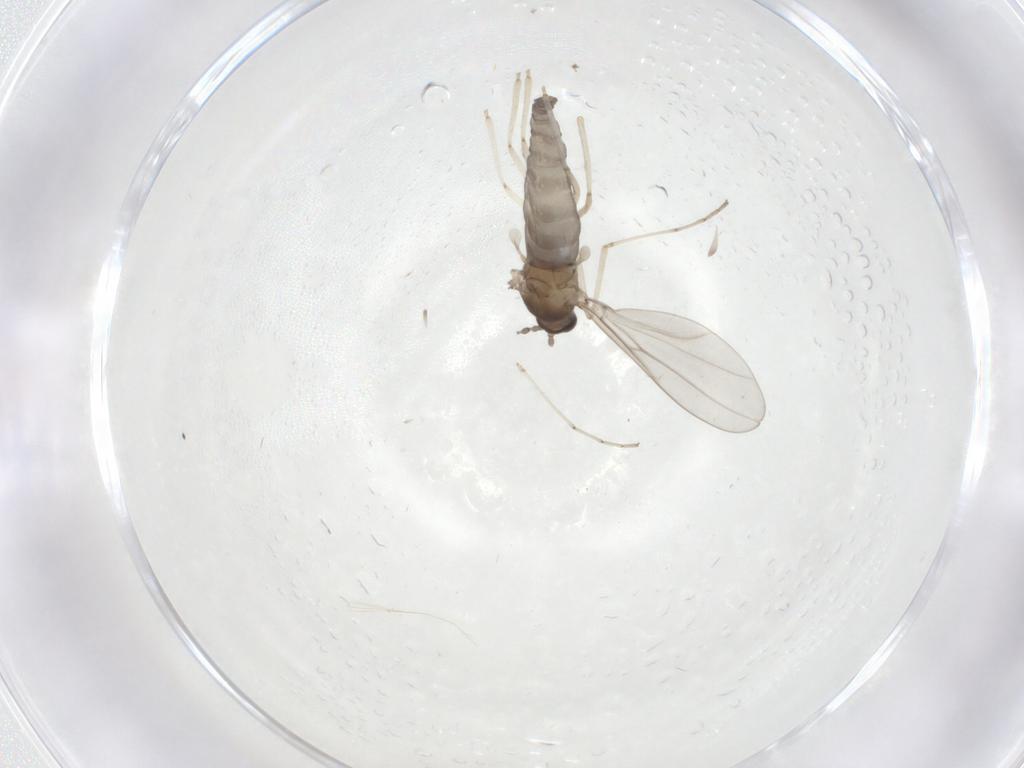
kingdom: Animalia
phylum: Arthropoda
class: Insecta
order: Diptera
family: Cecidomyiidae
